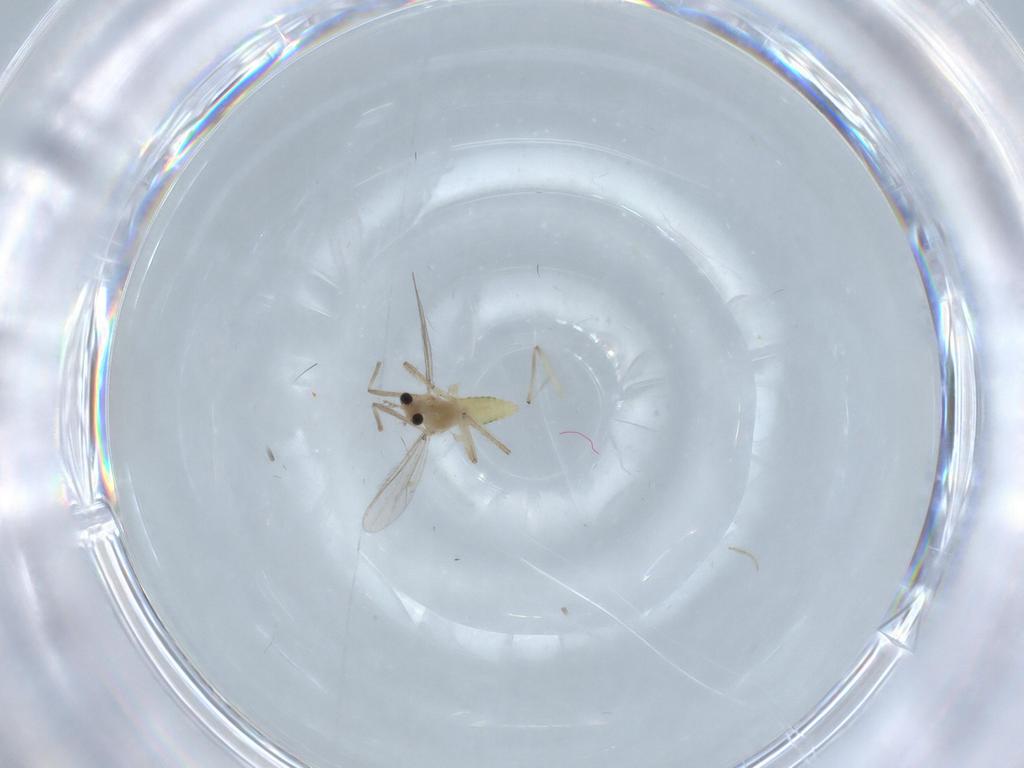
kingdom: Animalia
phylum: Arthropoda
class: Insecta
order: Diptera
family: Chironomidae
